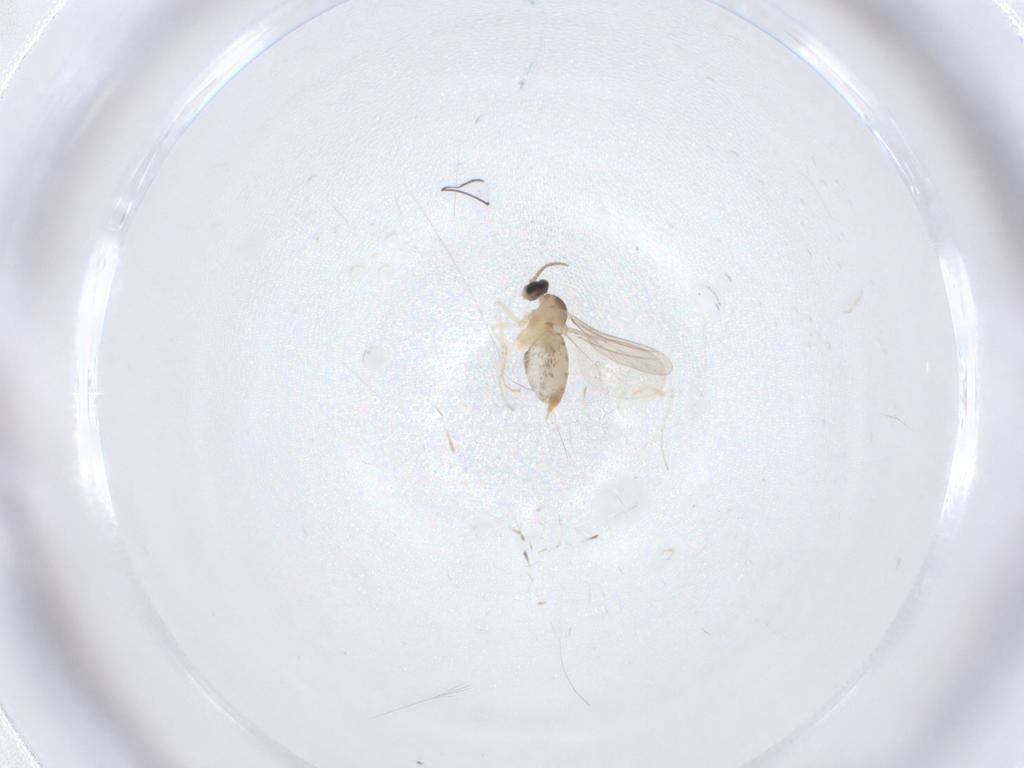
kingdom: Animalia
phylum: Arthropoda
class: Insecta
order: Diptera
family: Cecidomyiidae
